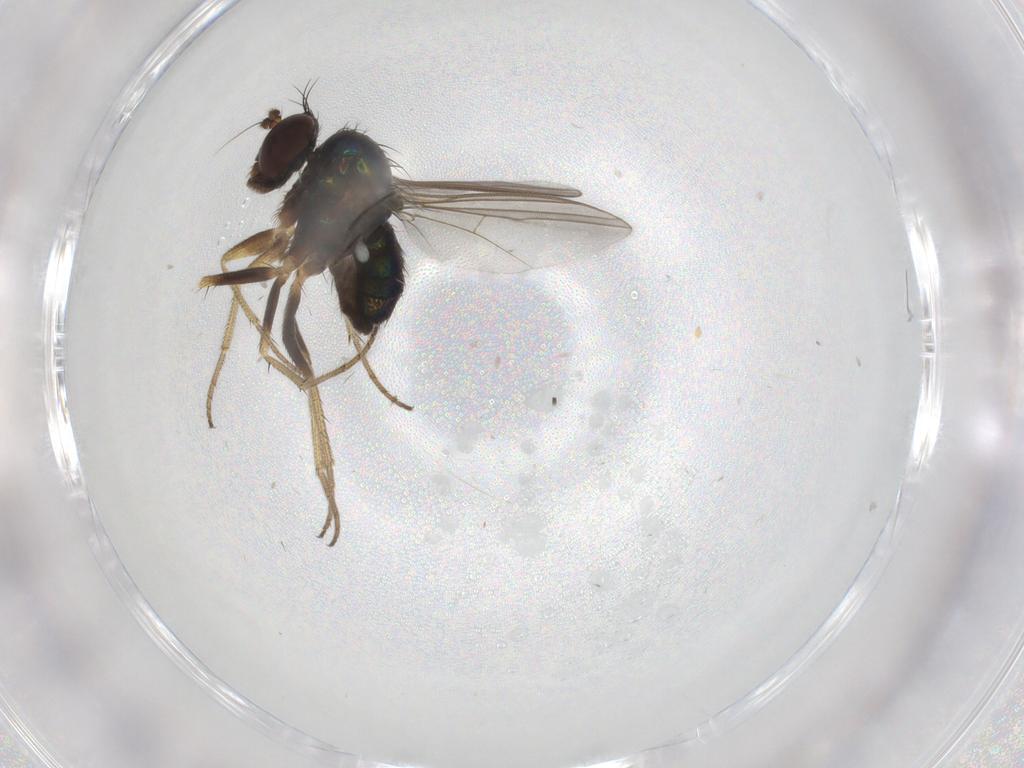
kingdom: Animalia
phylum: Arthropoda
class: Insecta
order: Diptera
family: Dolichopodidae
